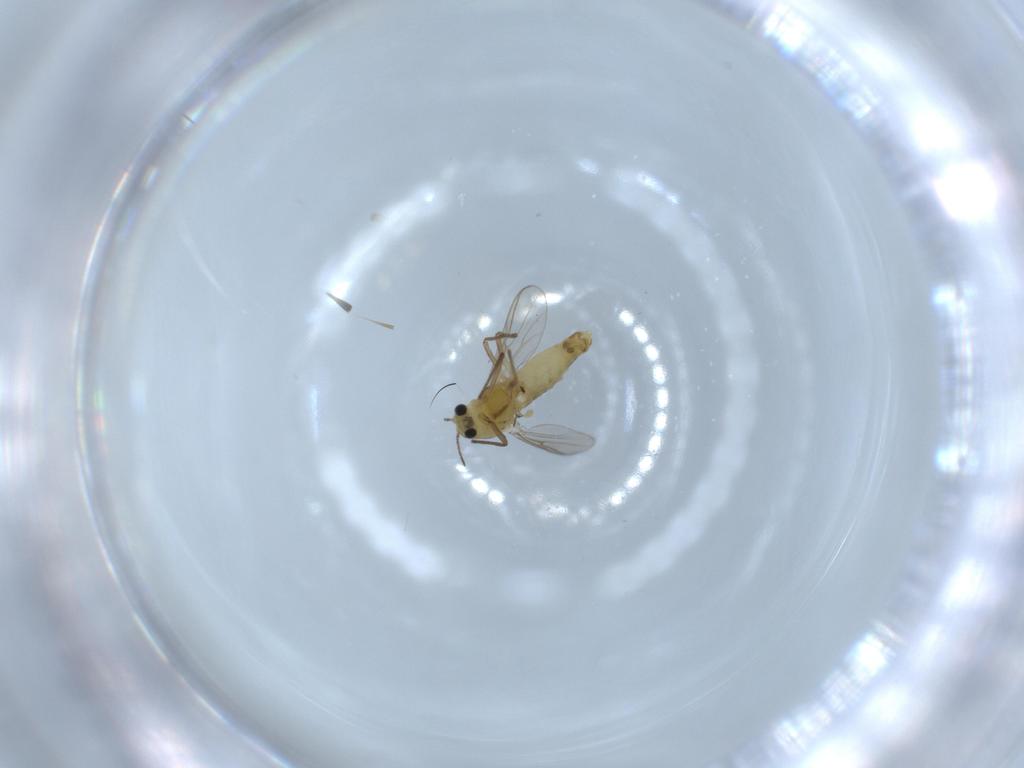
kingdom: Animalia
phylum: Arthropoda
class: Insecta
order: Diptera
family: Chironomidae
